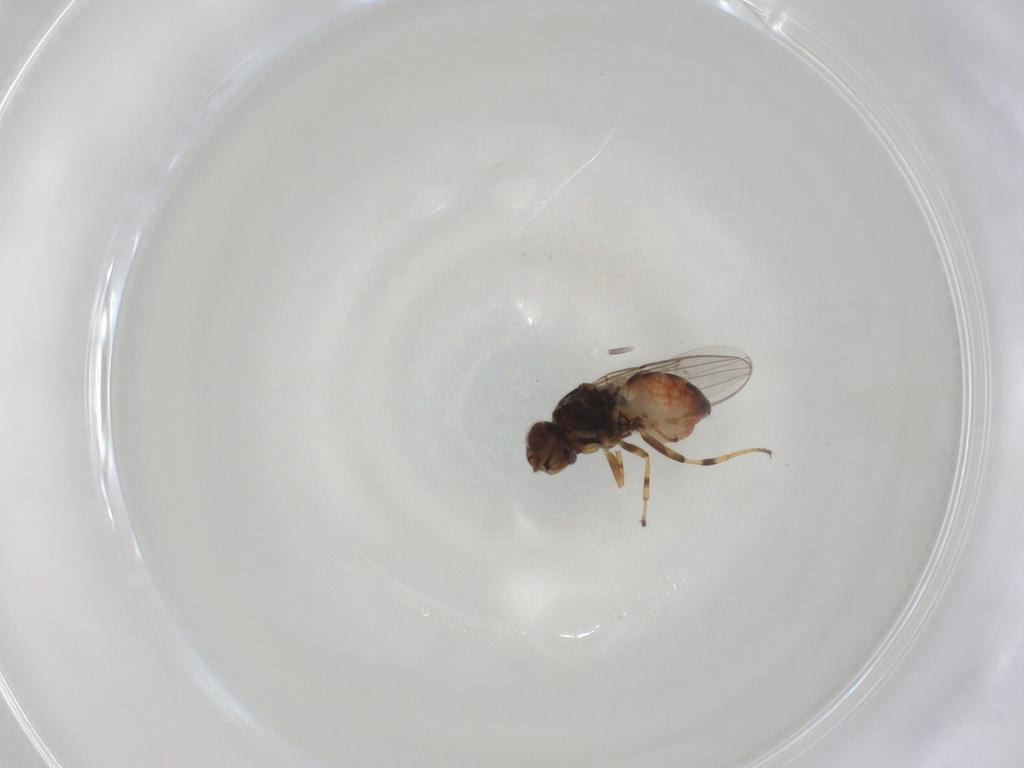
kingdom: Animalia
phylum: Arthropoda
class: Insecta
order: Diptera
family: Chloropidae
